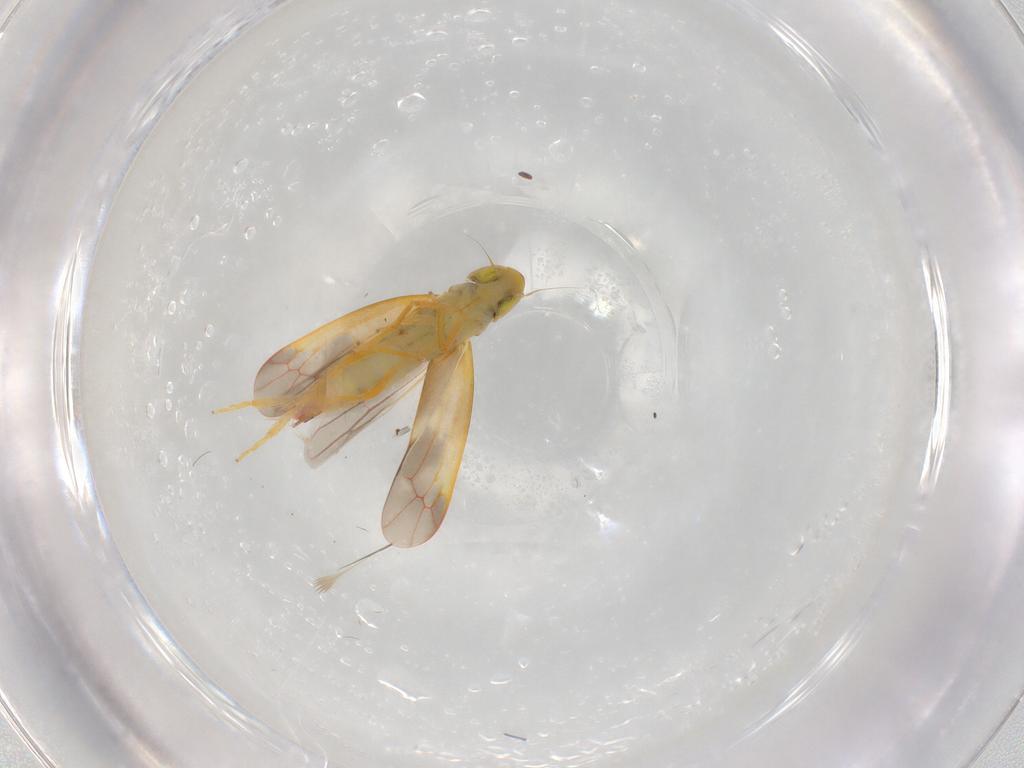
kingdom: Animalia
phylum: Arthropoda
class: Insecta
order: Hemiptera
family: Cicadellidae
